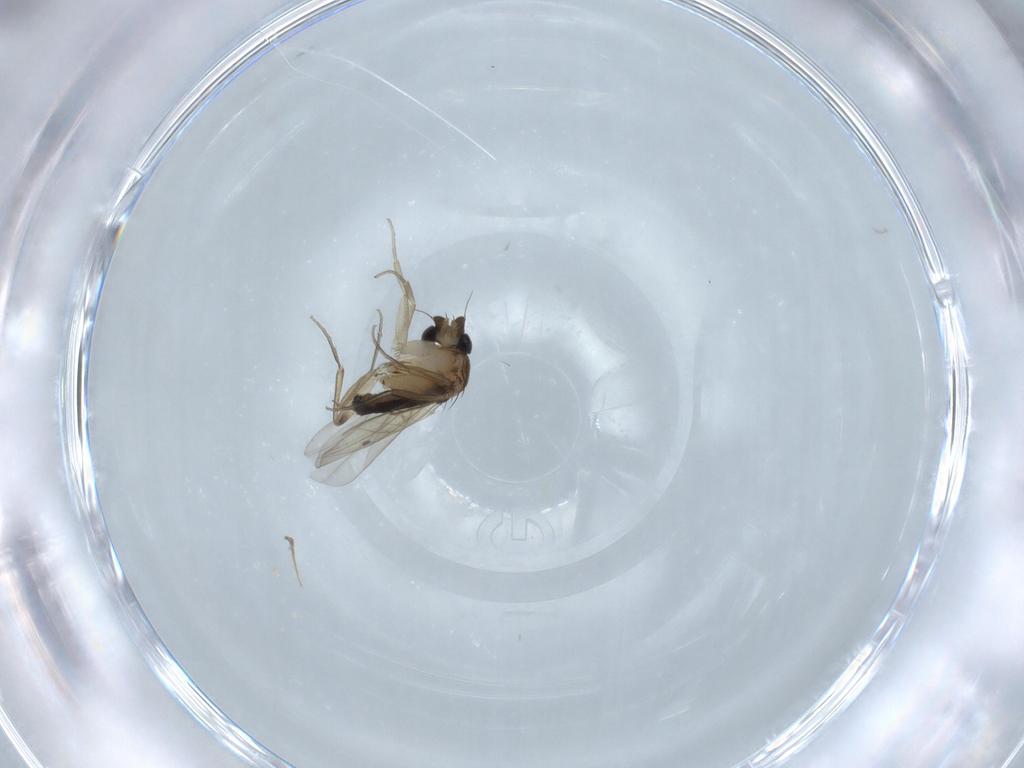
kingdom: Animalia
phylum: Arthropoda
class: Insecta
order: Diptera
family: Phoridae
